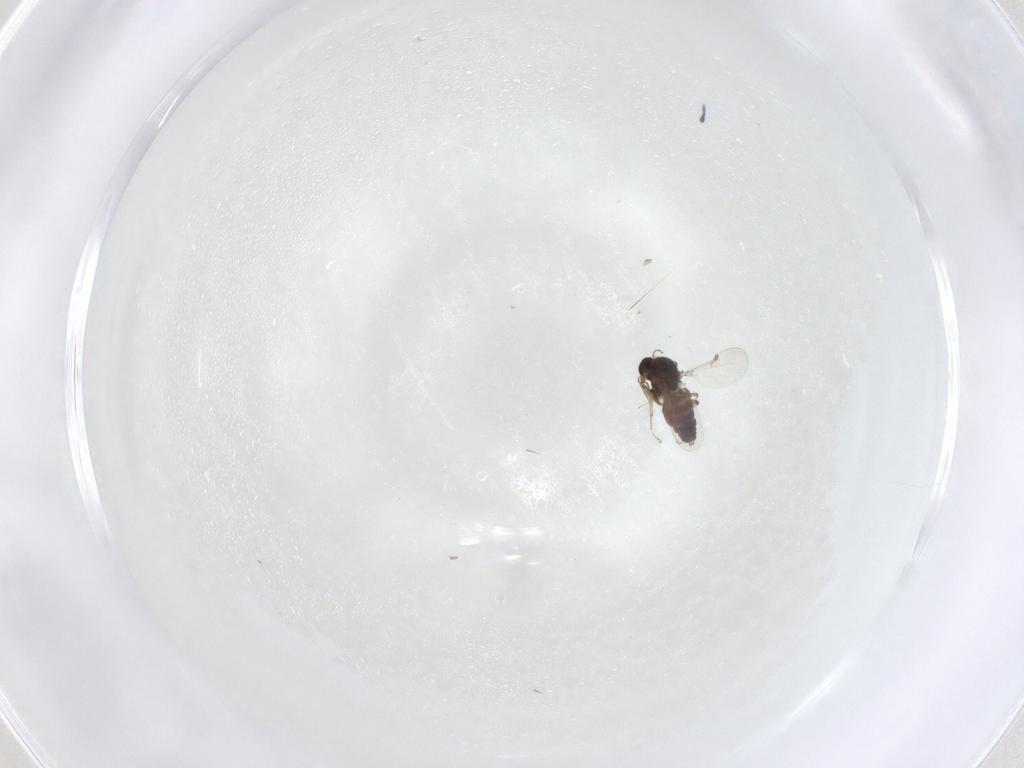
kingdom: Animalia
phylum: Arthropoda
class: Insecta
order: Diptera
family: Ceratopogonidae
